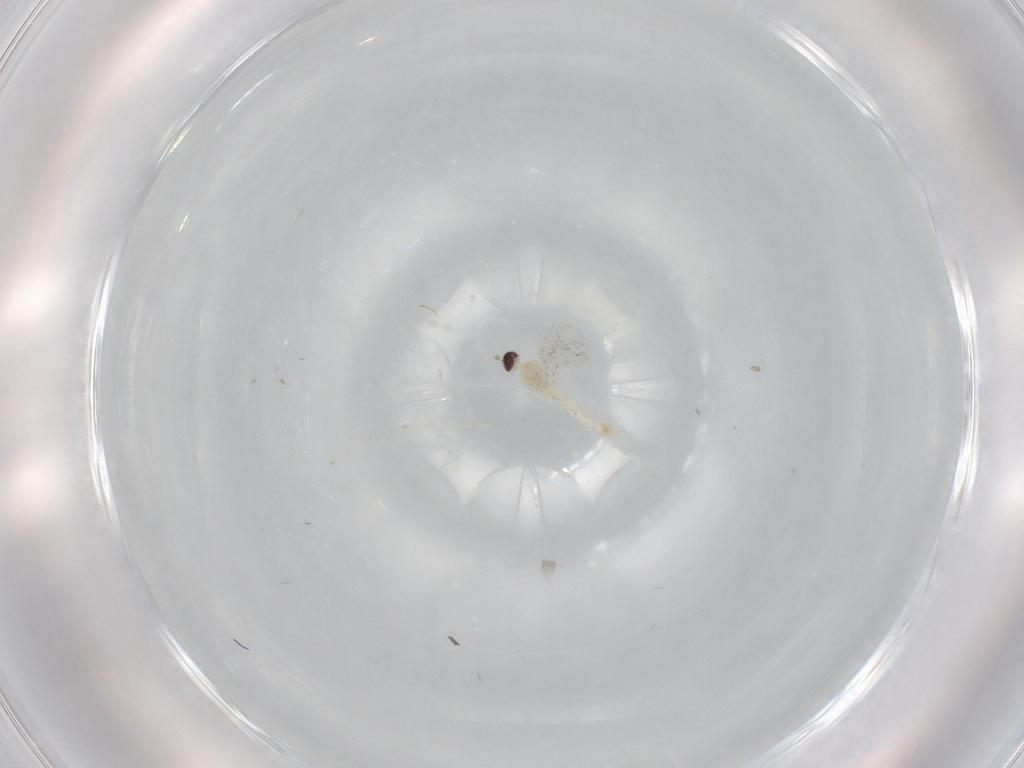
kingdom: Animalia
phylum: Arthropoda
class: Insecta
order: Diptera
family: Cecidomyiidae
